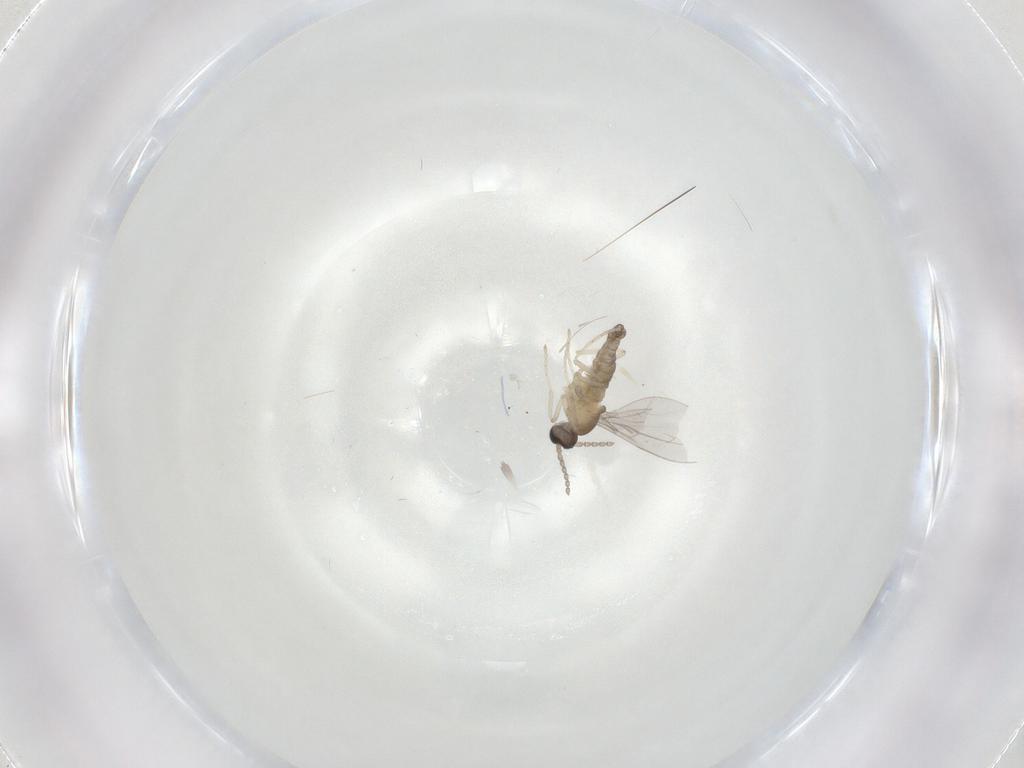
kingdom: Animalia
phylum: Arthropoda
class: Insecta
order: Diptera
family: Cecidomyiidae
